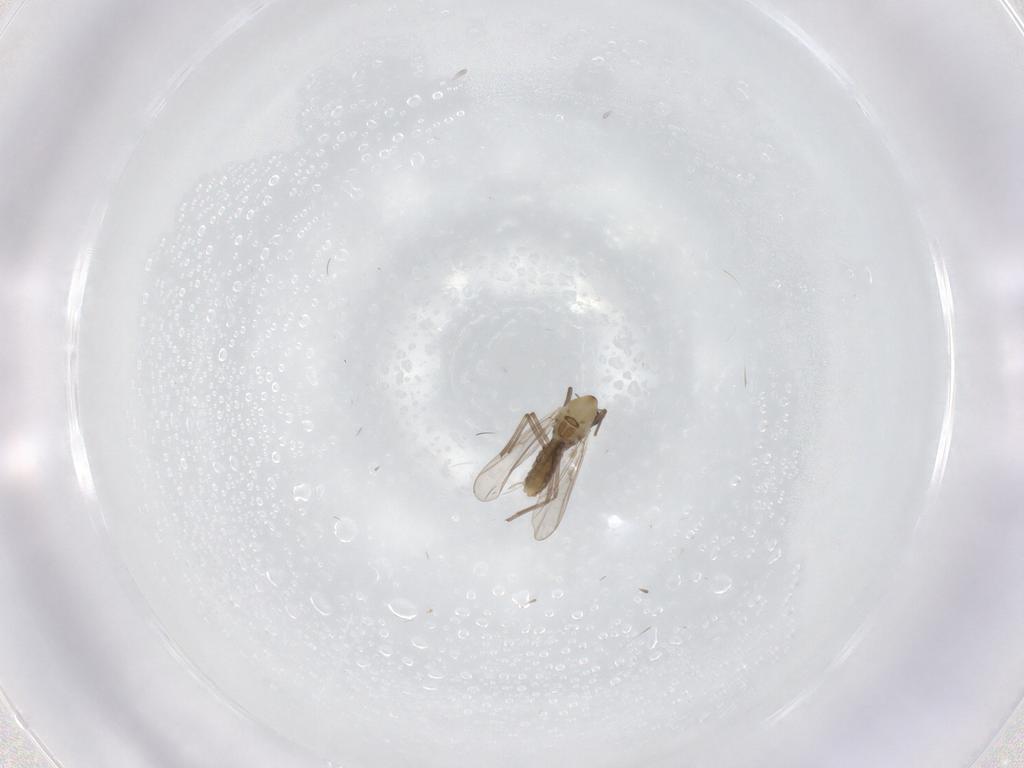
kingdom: Animalia
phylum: Arthropoda
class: Insecta
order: Diptera
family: Chironomidae
